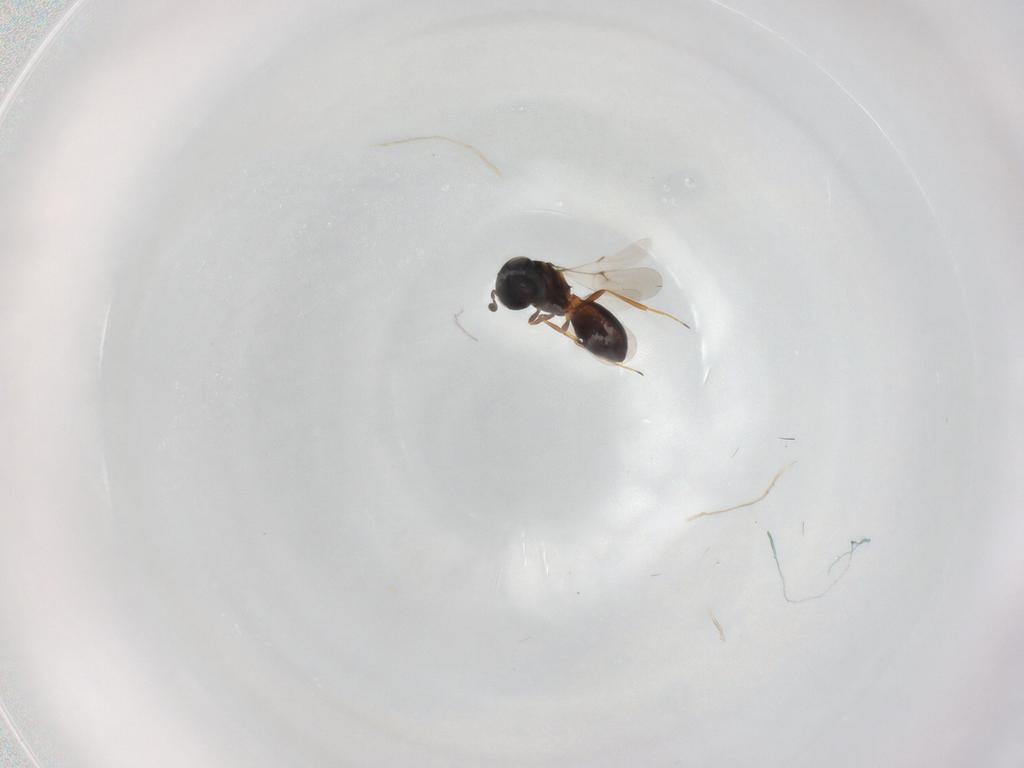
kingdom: Animalia
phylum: Arthropoda
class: Insecta
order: Hymenoptera
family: Scelionidae
